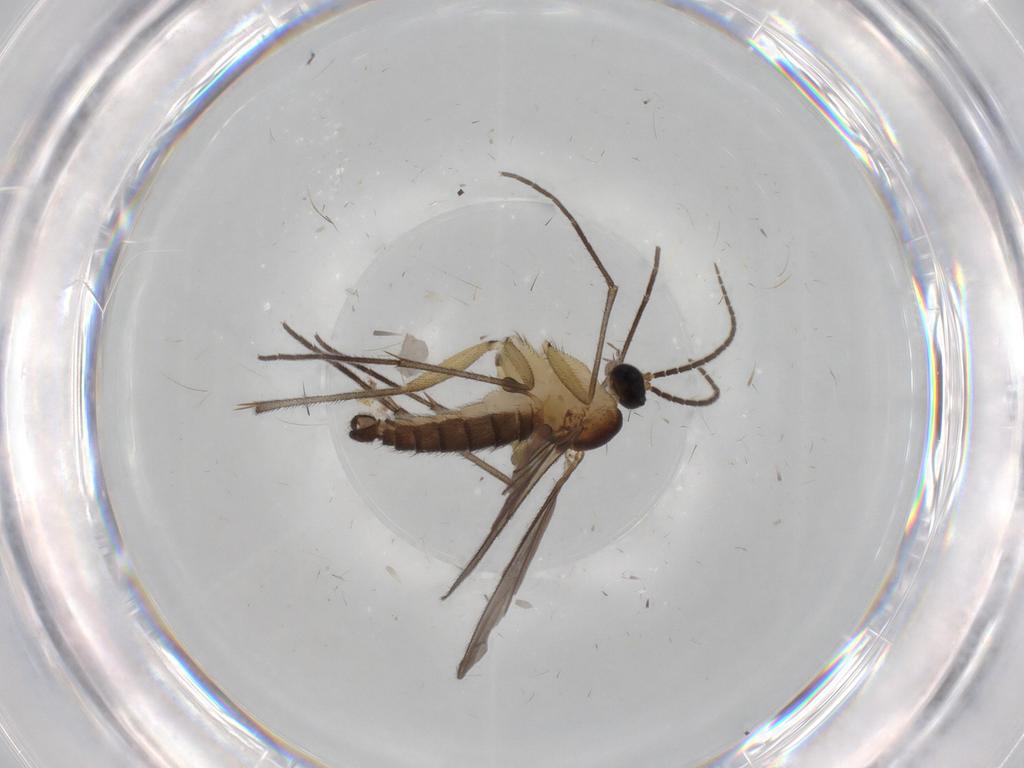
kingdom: Animalia
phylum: Arthropoda
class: Insecta
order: Diptera
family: Sciaridae
